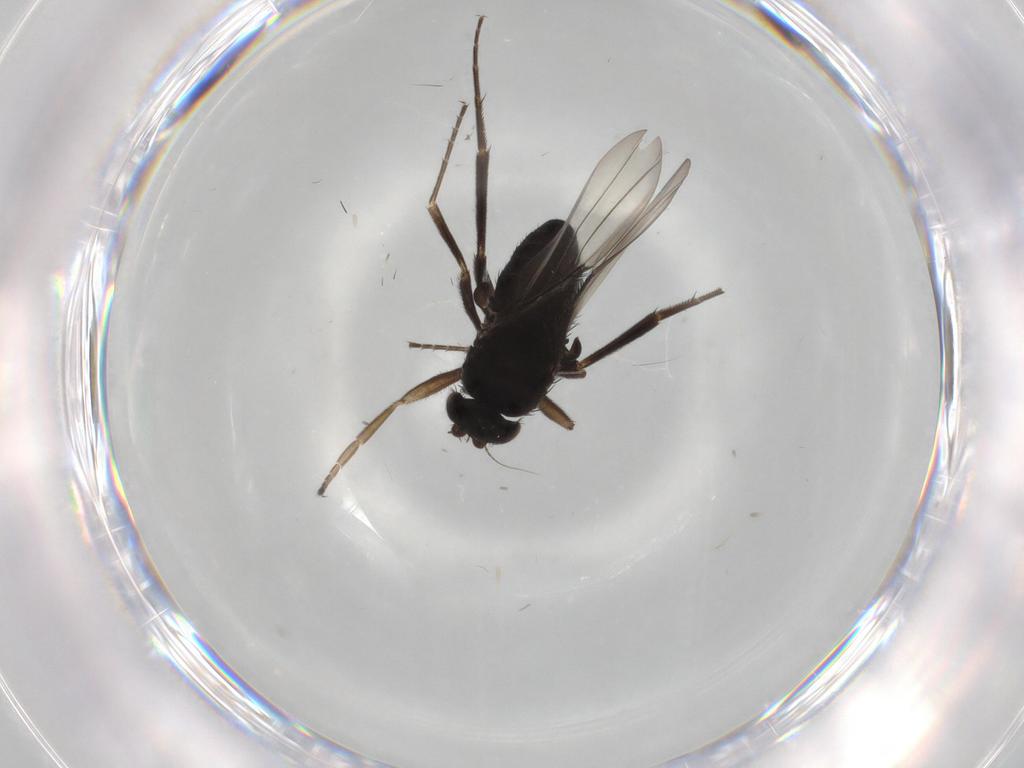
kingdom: Animalia
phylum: Arthropoda
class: Insecta
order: Diptera
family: Phoridae
